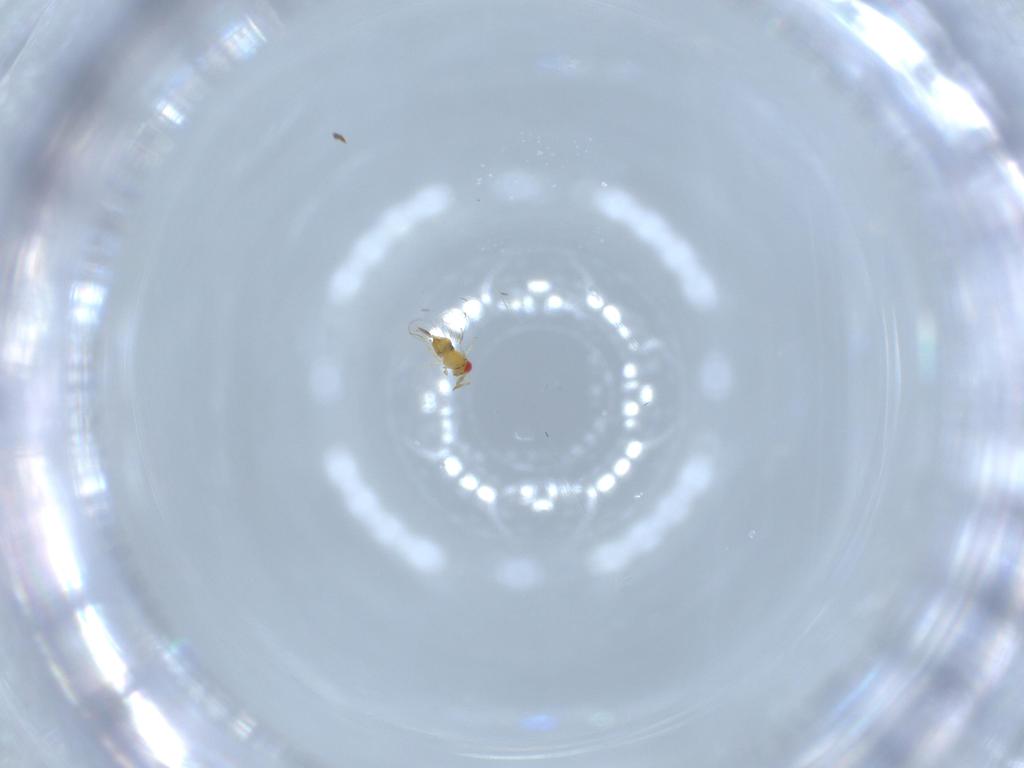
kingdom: Animalia
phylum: Arthropoda
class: Insecta
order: Hymenoptera
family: Trichogrammatidae
